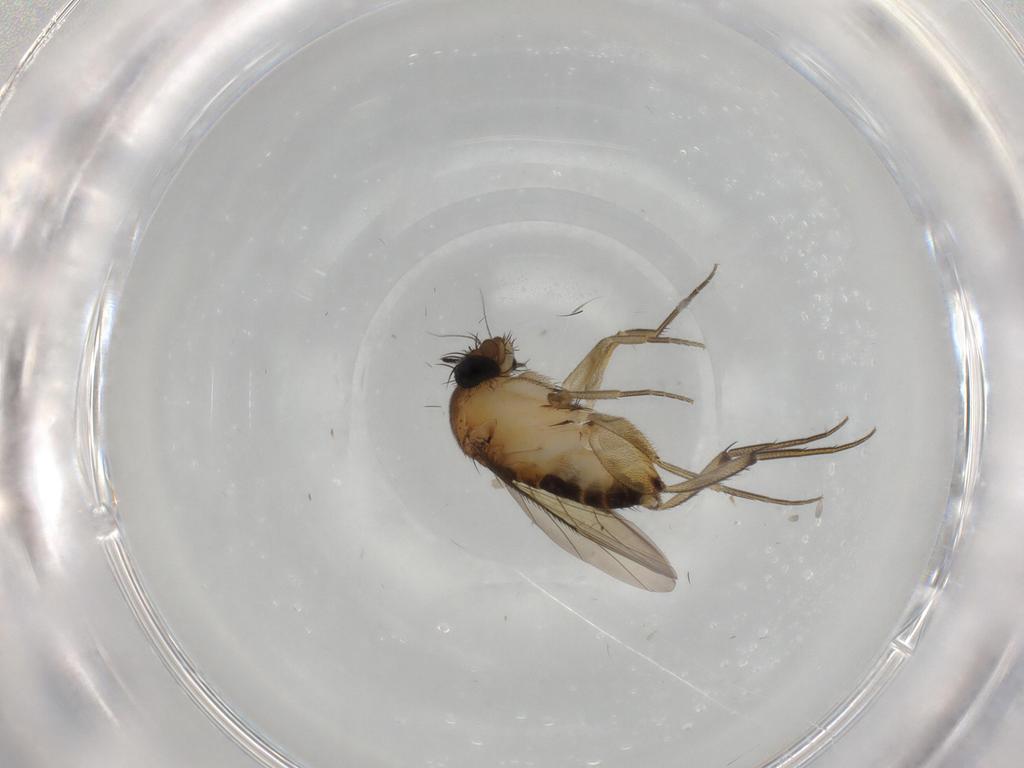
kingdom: Animalia
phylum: Arthropoda
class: Insecta
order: Diptera
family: Phoridae
